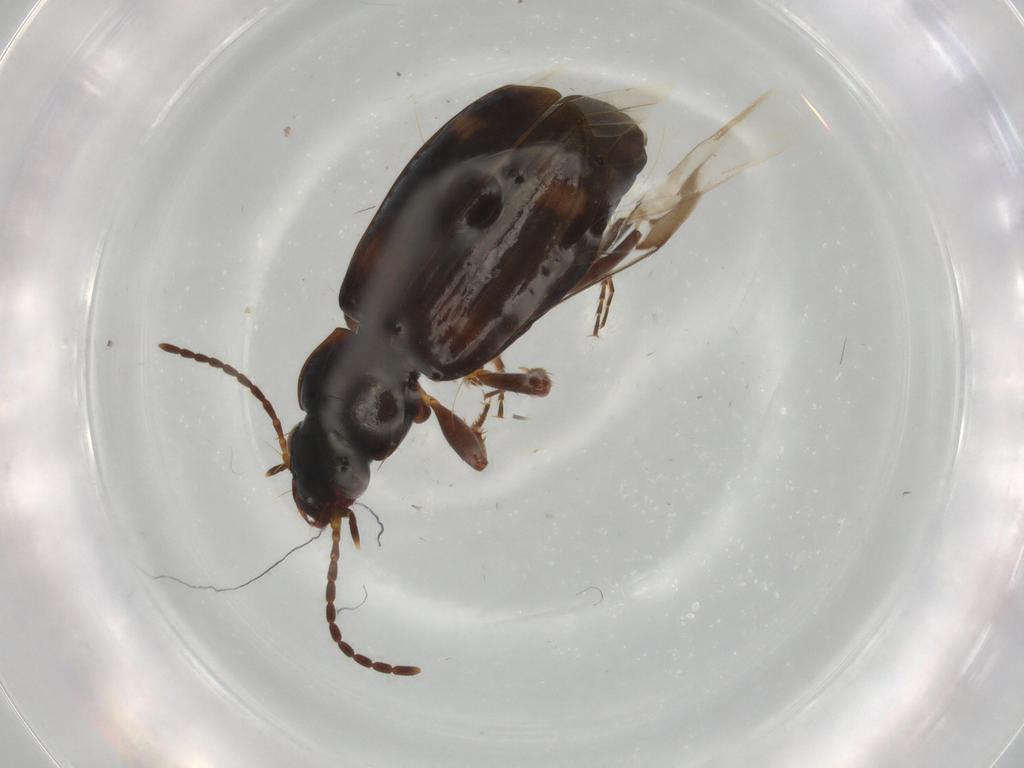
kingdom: Animalia
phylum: Arthropoda
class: Insecta
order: Coleoptera
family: Carabidae
